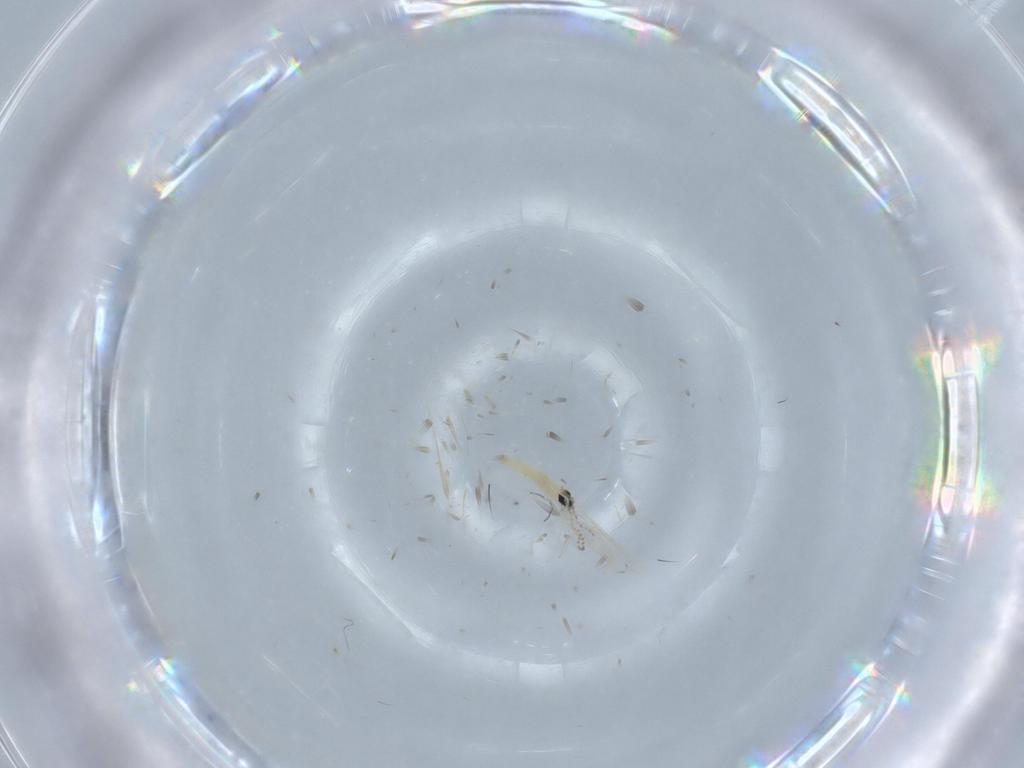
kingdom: Animalia
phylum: Arthropoda
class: Insecta
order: Diptera
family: Cecidomyiidae
